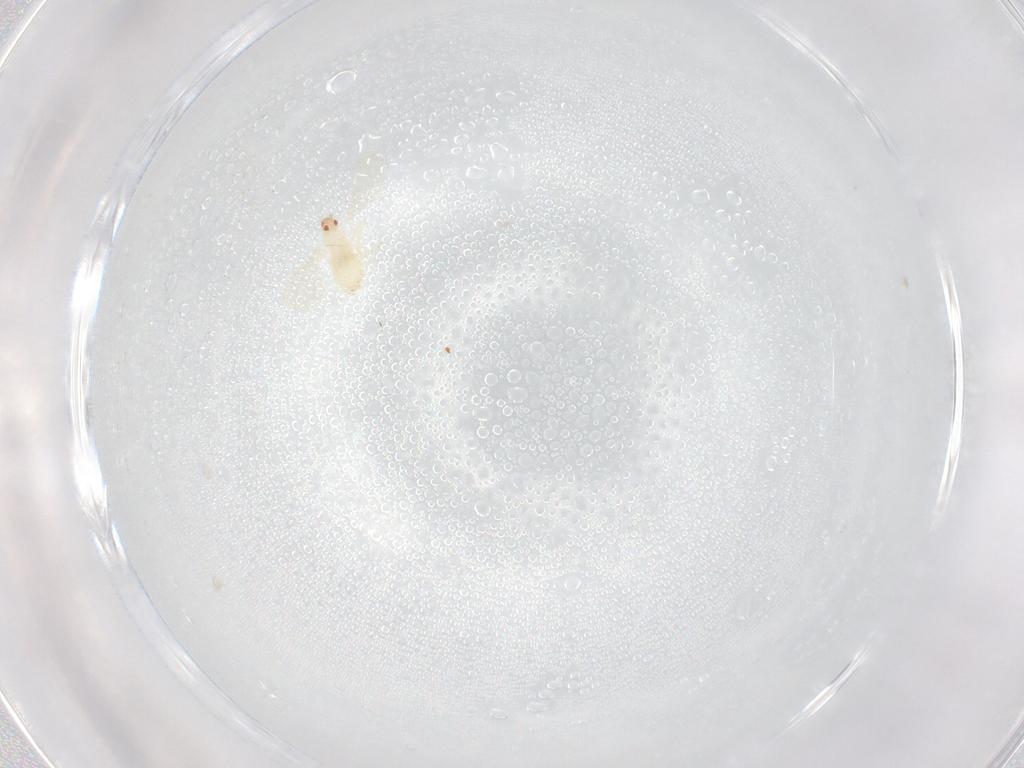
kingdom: Animalia
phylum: Arthropoda
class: Insecta
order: Diptera
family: Cecidomyiidae
